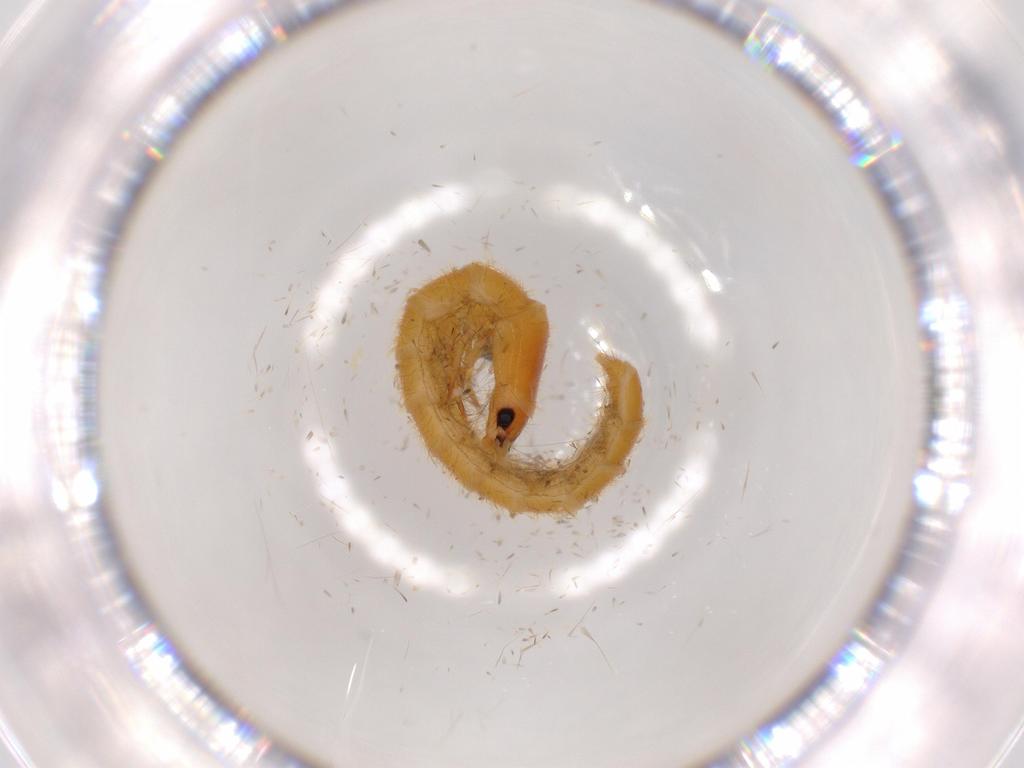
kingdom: Animalia
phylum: Arthropoda
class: Insecta
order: Coleoptera
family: Phengodidae
